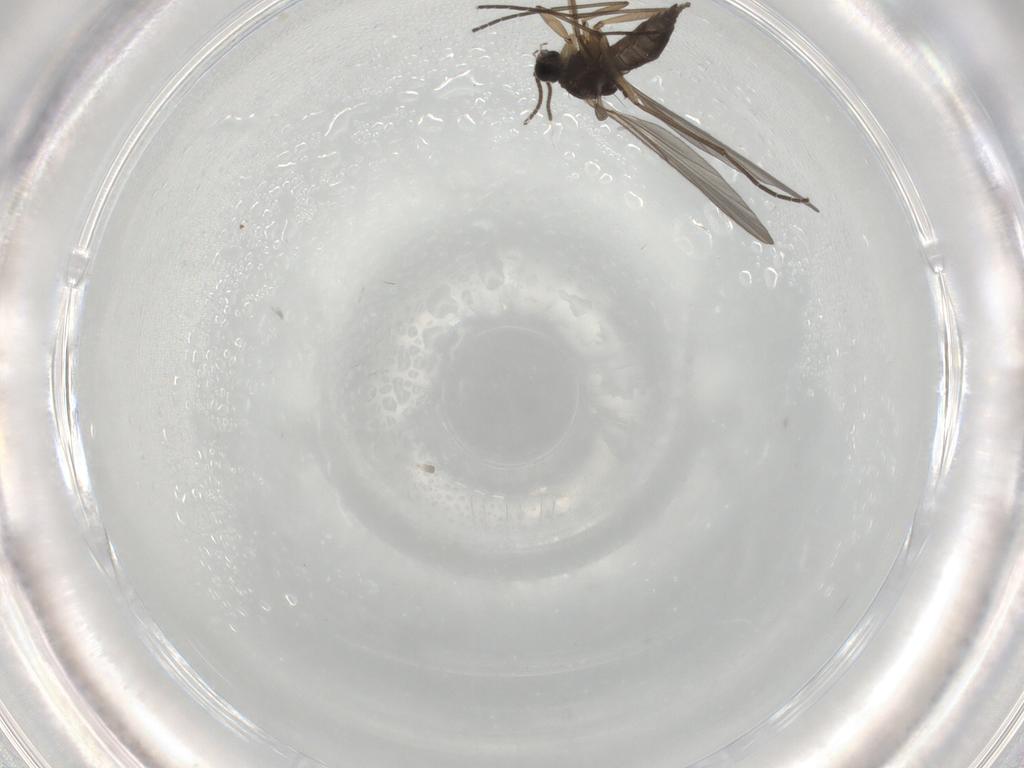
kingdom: Animalia
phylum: Arthropoda
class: Insecta
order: Diptera
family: Sciaridae
